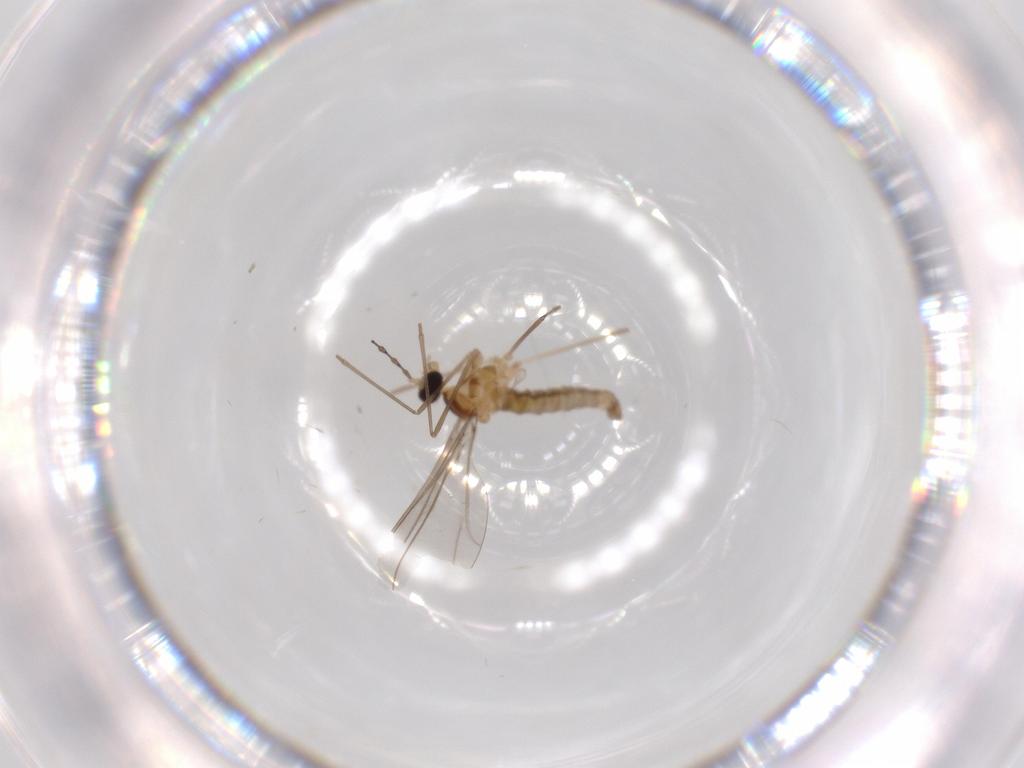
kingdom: Animalia
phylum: Arthropoda
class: Insecta
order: Diptera
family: Cecidomyiidae
